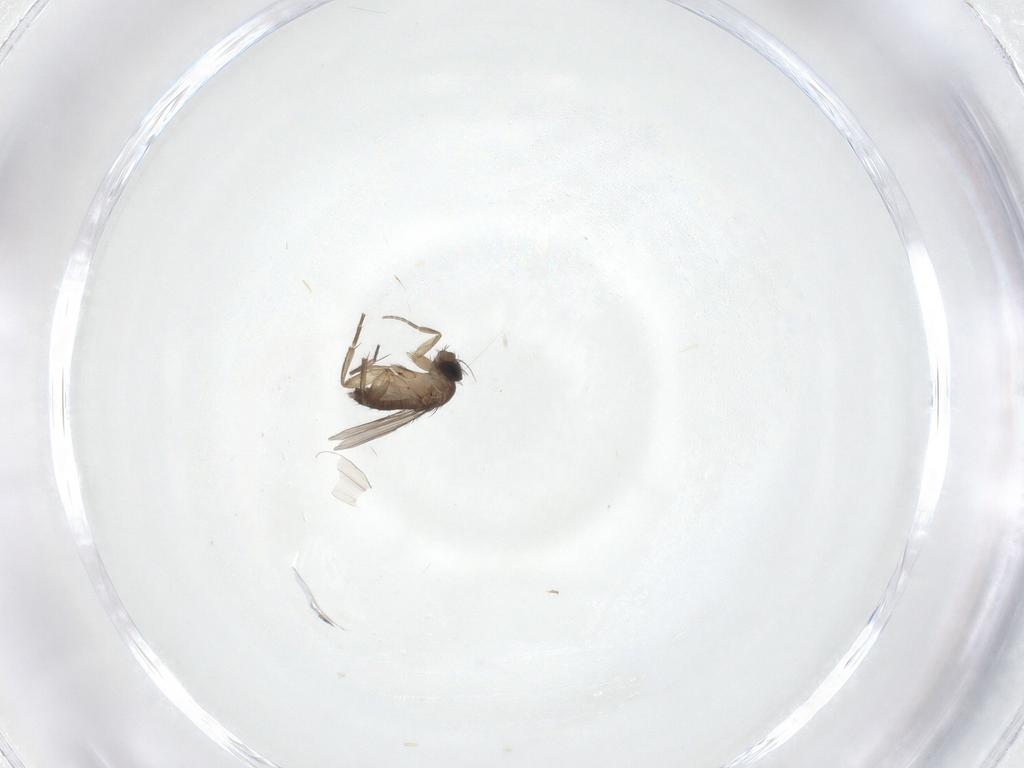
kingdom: Animalia
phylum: Arthropoda
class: Insecta
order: Diptera
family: Phoridae
